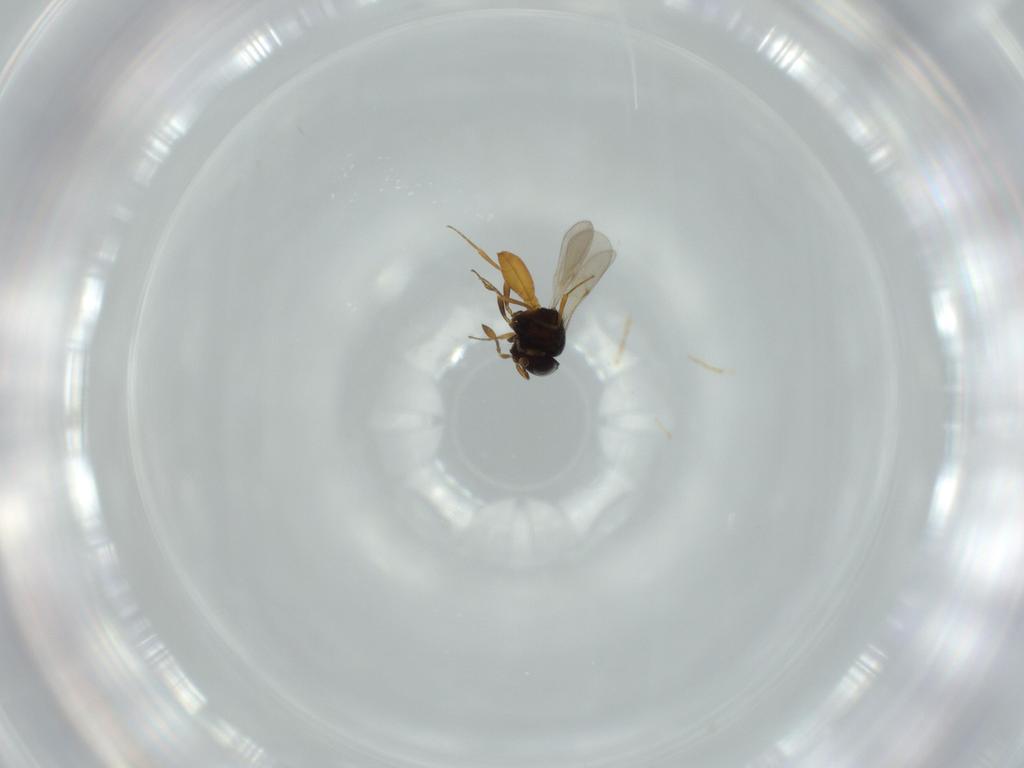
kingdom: Animalia
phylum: Arthropoda
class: Insecta
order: Hymenoptera
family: Scelionidae
